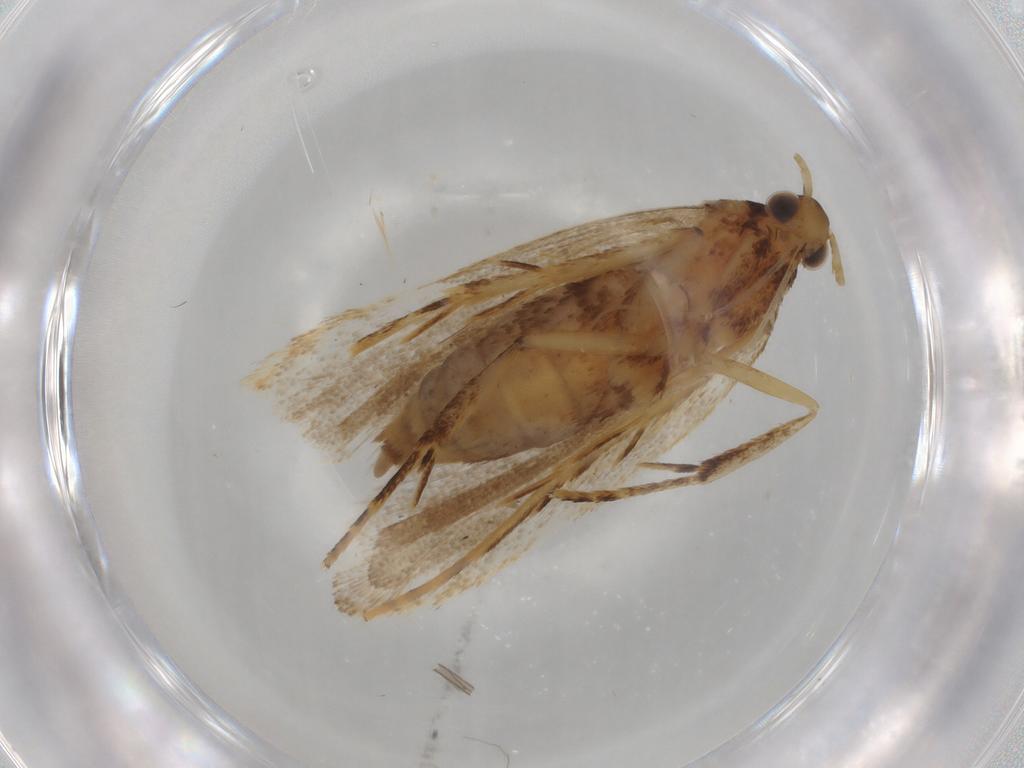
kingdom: Animalia
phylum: Arthropoda
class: Insecta
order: Lepidoptera
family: Lecithoceridae
